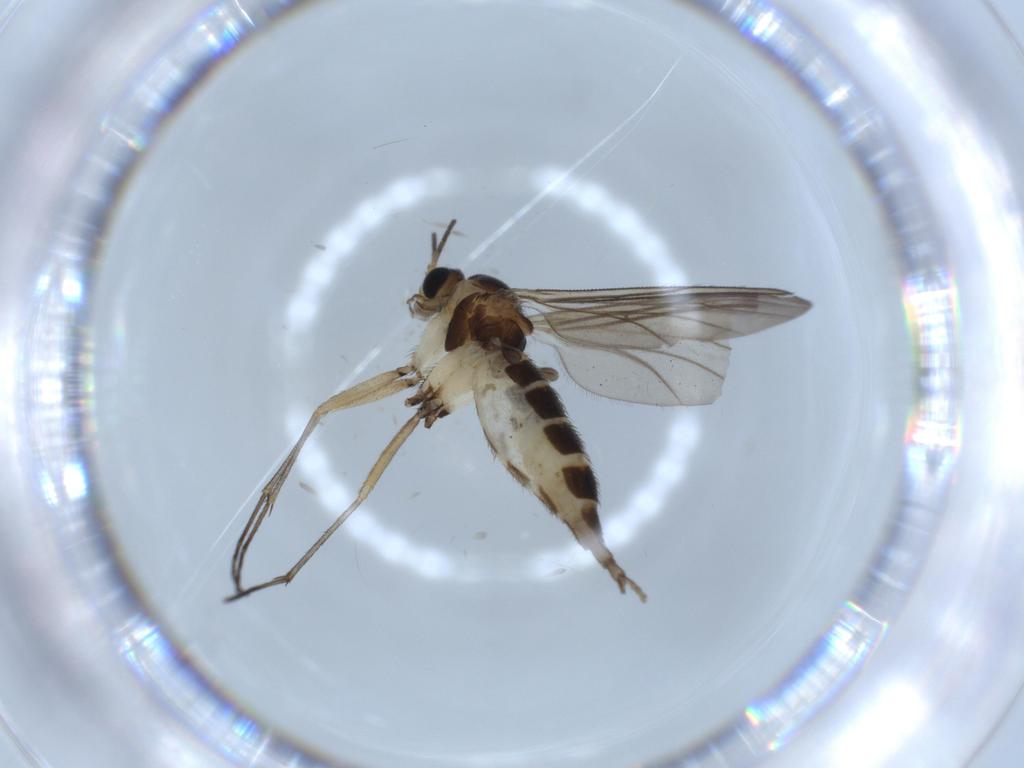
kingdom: Animalia
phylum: Arthropoda
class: Insecta
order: Diptera
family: Sciaridae
